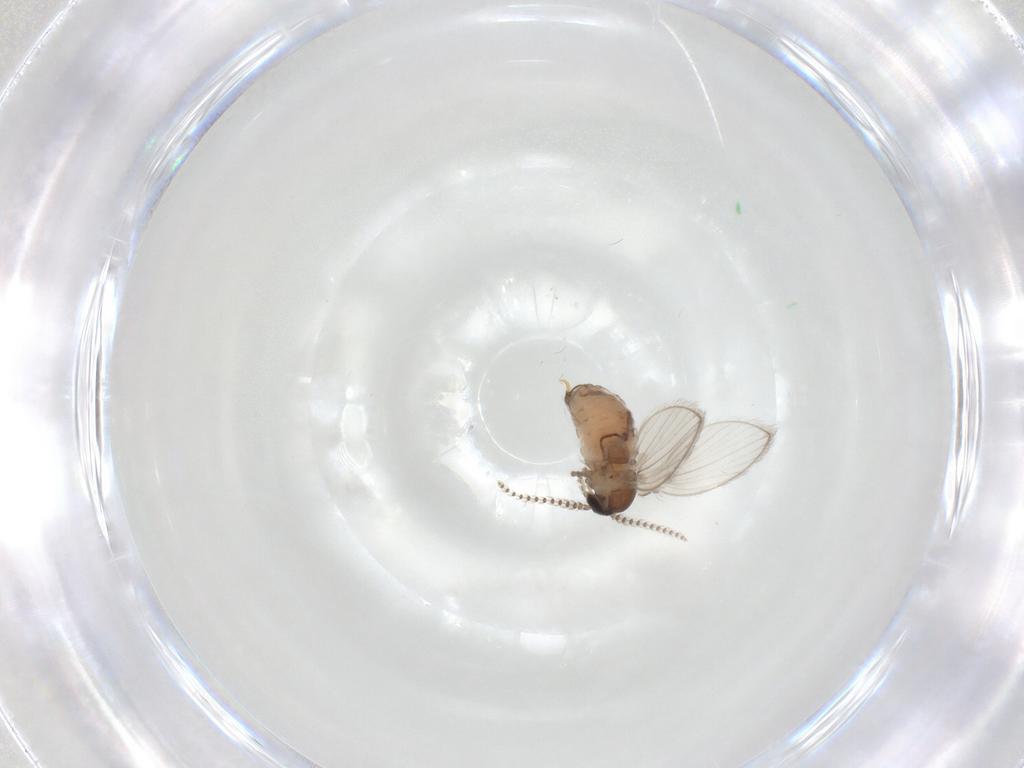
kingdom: Animalia
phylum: Arthropoda
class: Insecta
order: Diptera
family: Psychodidae
